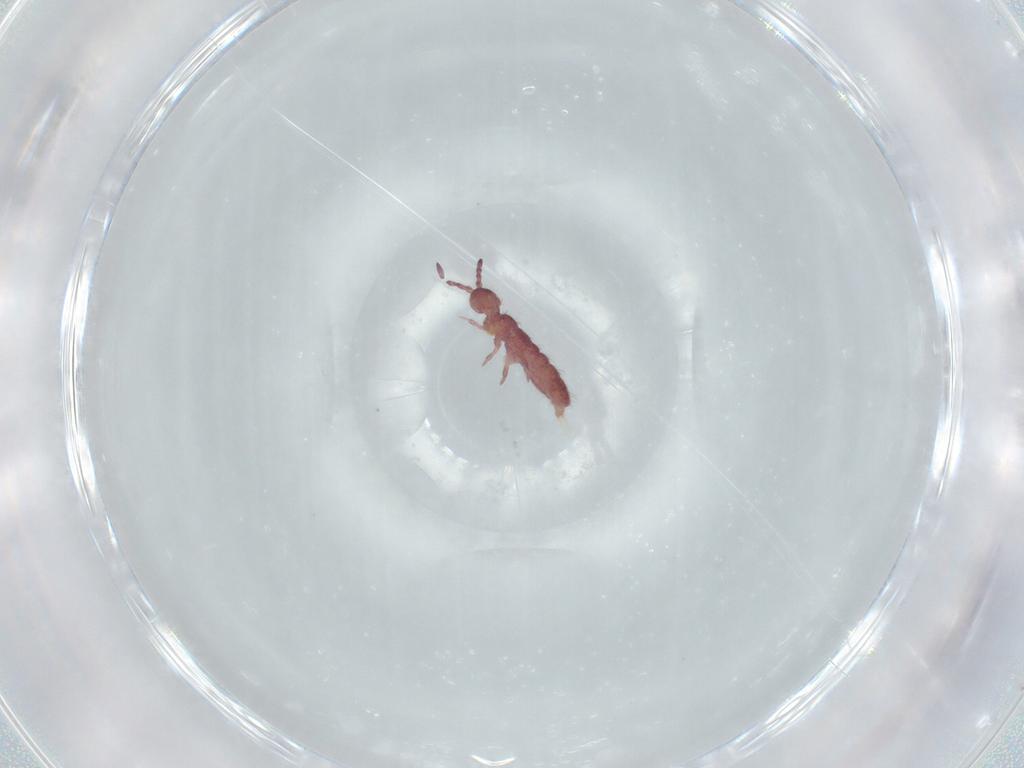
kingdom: Animalia
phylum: Arthropoda
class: Collembola
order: Entomobryomorpha
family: Isotomidae
